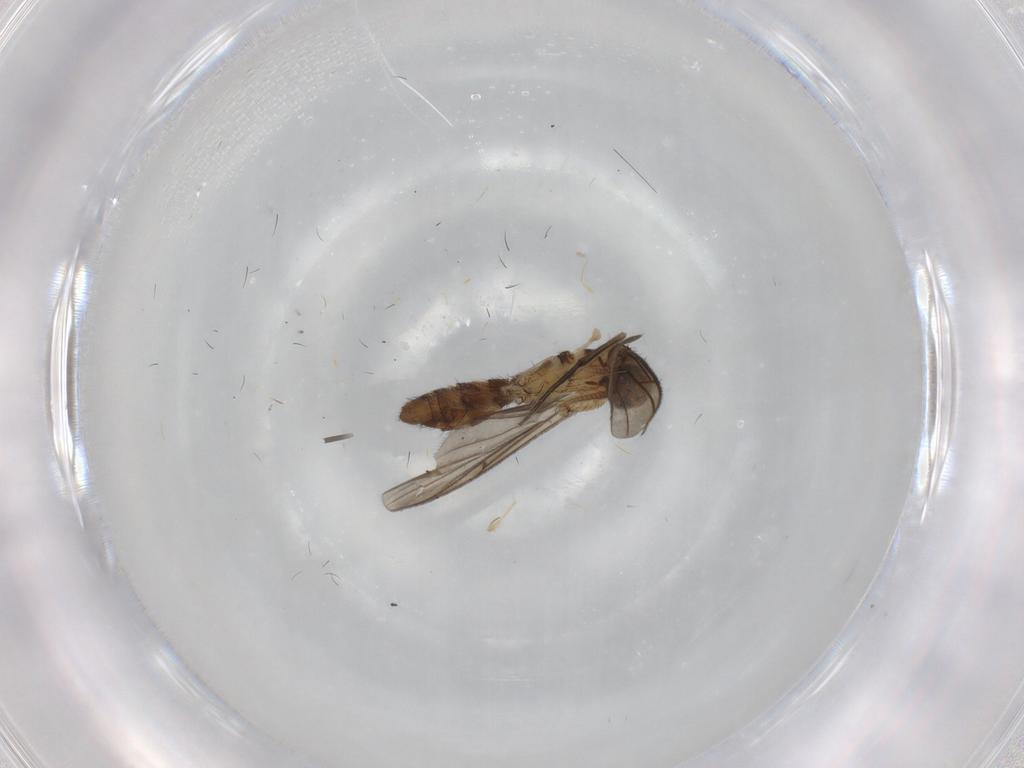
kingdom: Animalia
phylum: Arthropoda
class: Insecta
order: Diptera
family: Keroplatidae
